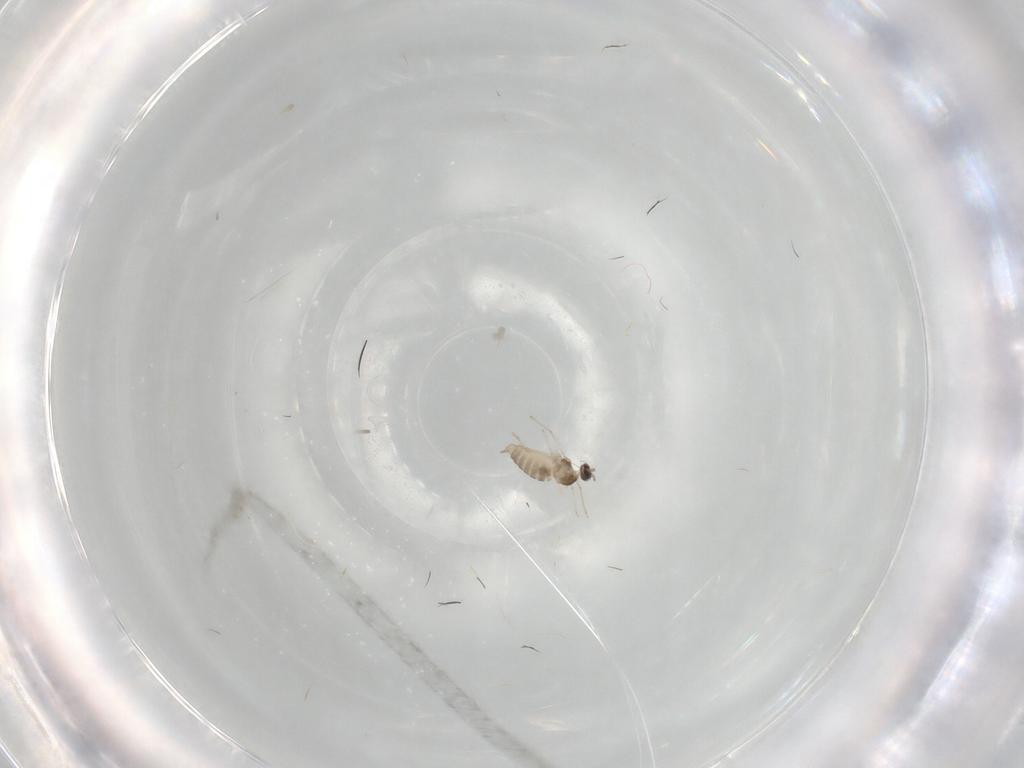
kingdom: Animalia
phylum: Arthropoda
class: Insecta
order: Diptera
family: Cecidomyiidae
